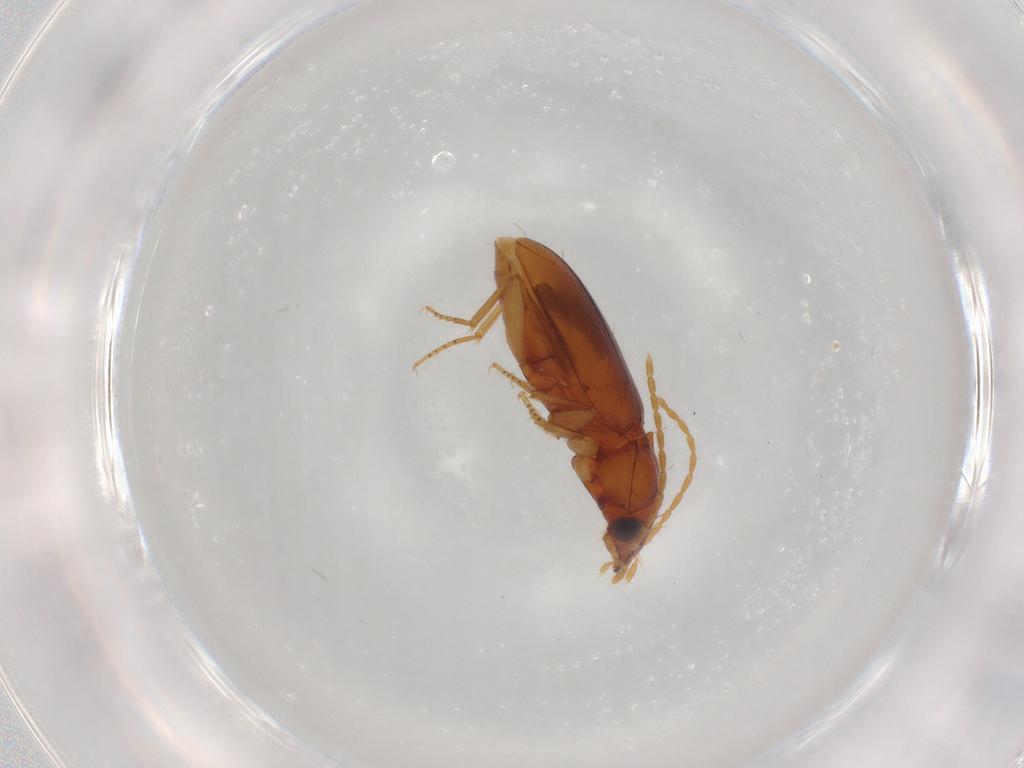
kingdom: Animalia
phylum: Arthropoda
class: Insecta
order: Coleoptera
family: Carabidae
